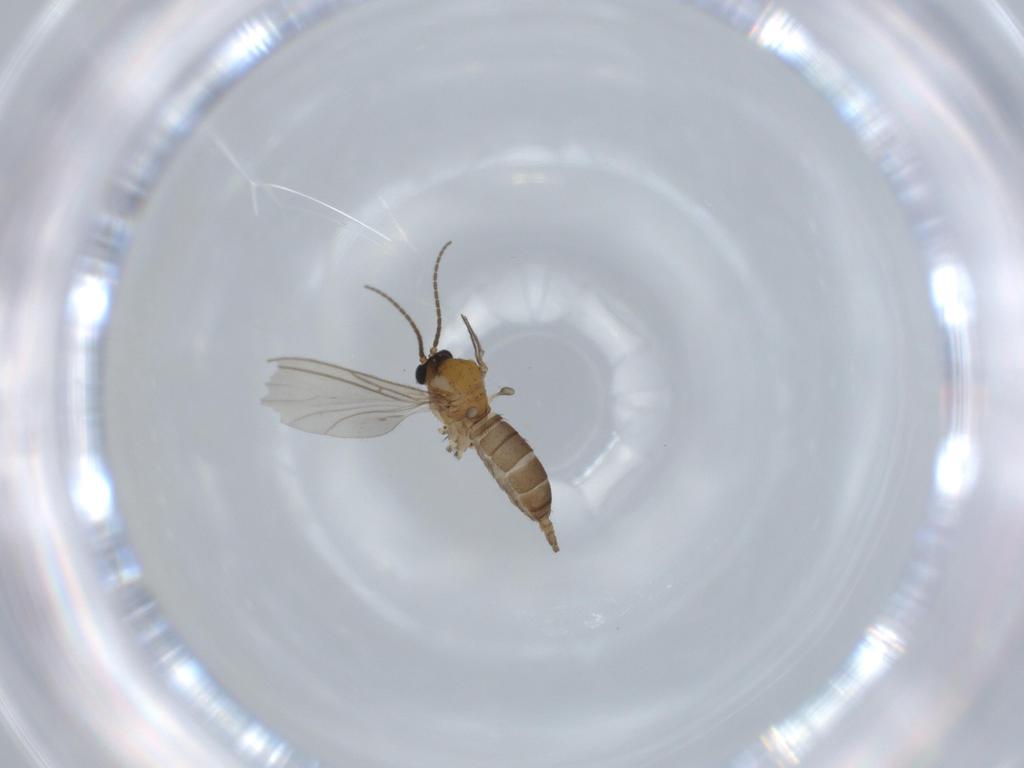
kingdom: Animalia
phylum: Arthropoda
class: Insecta
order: Diptera
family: Sciaridae
